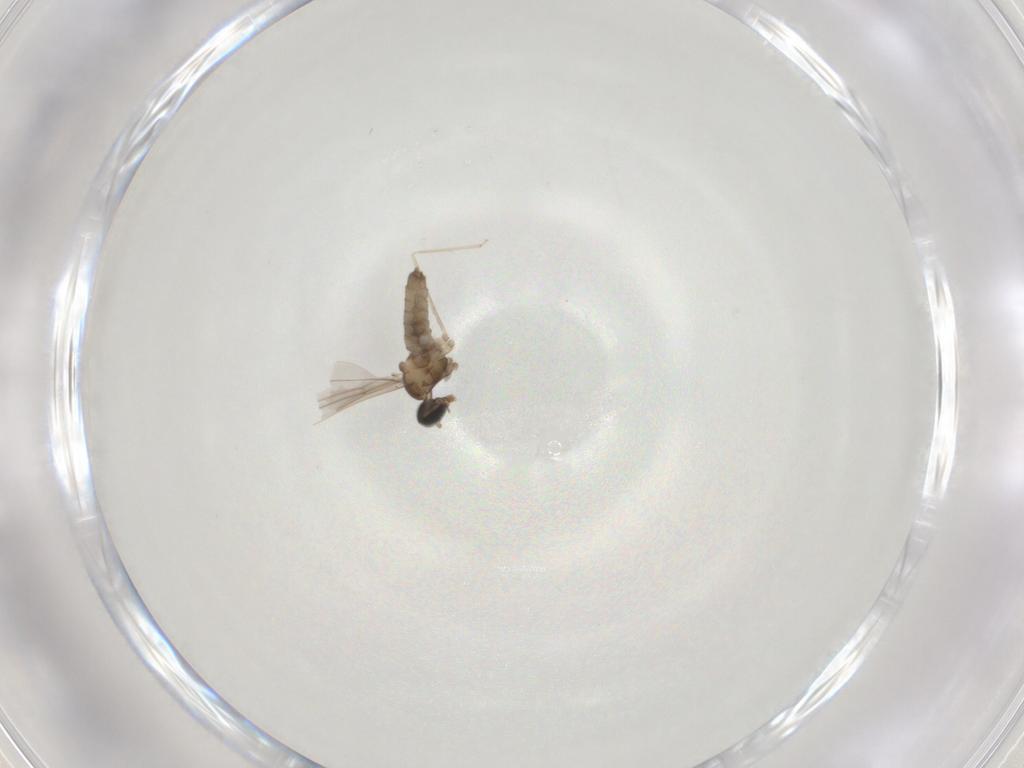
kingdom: Animalia
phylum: Arthropoda
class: Insecta
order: Diptera
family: Cecidomyiidae
